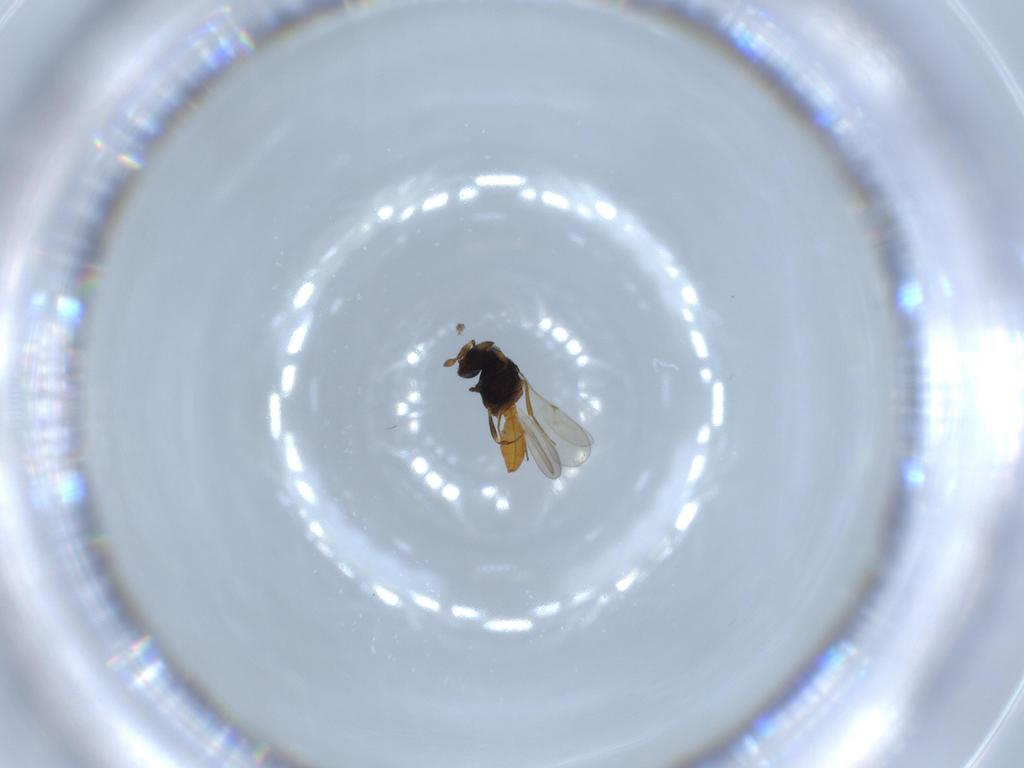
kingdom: Animalia
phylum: Arthropoda
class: Insecta
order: Hymenoptera
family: Scelionidae
